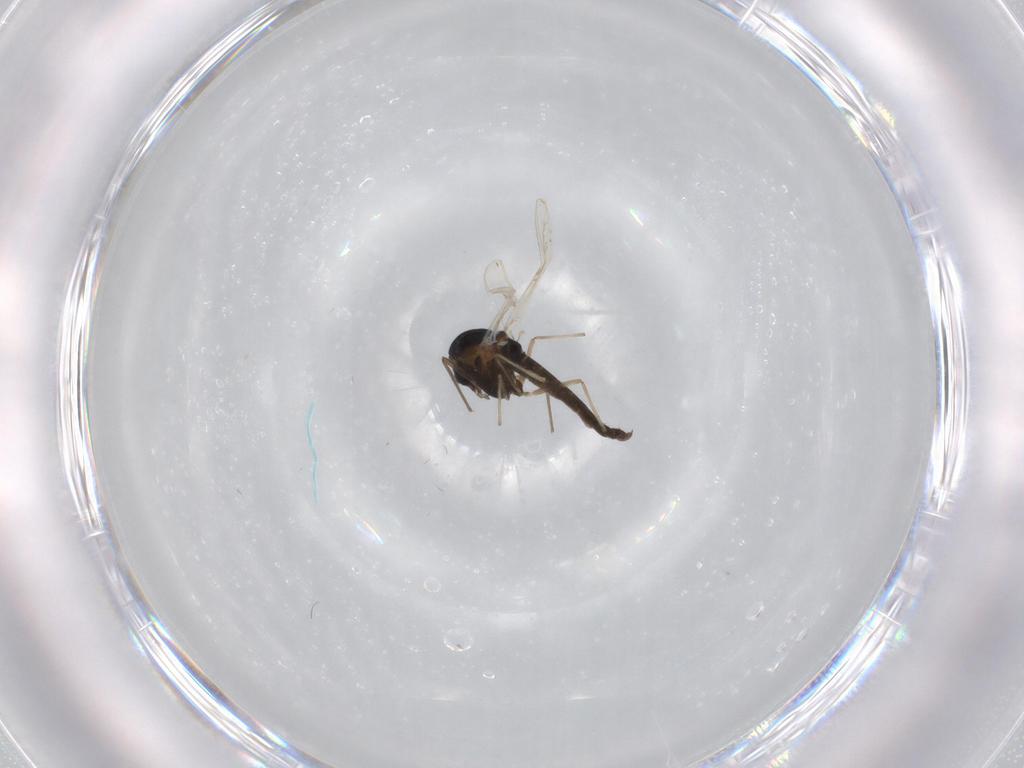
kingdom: Animalia
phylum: Arthropoda
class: Insecta
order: Diptera
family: Chironomidae
